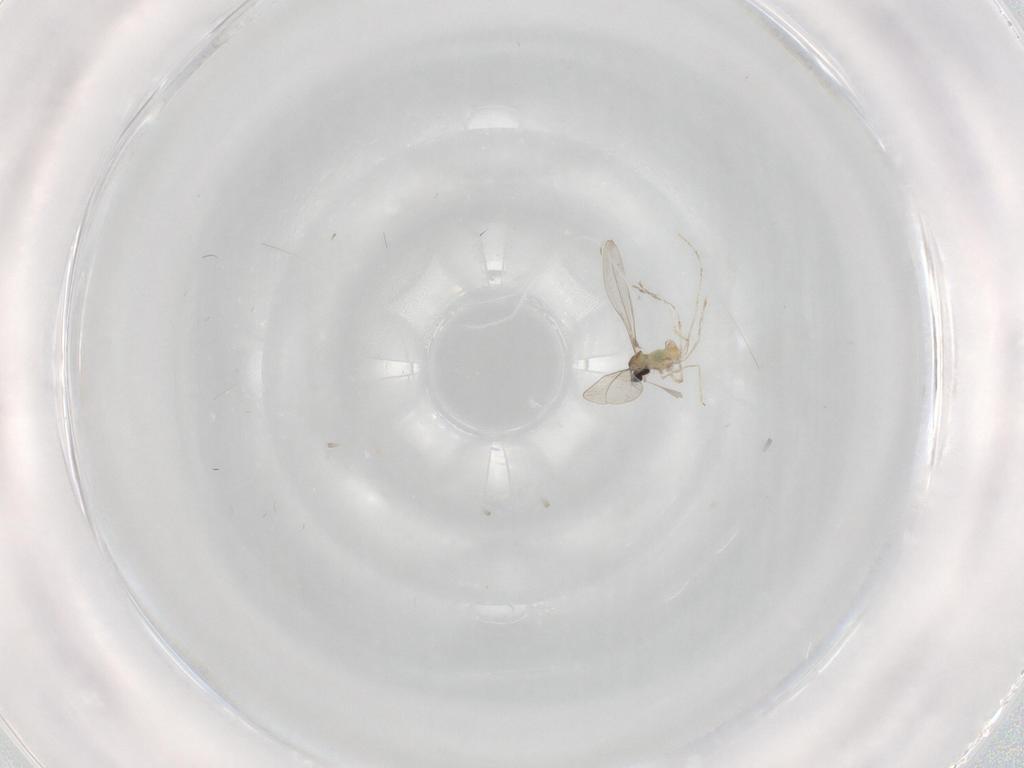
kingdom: Animalia
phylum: Arthropoda
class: Insecta
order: Diptera
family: Cecidomyiidae
